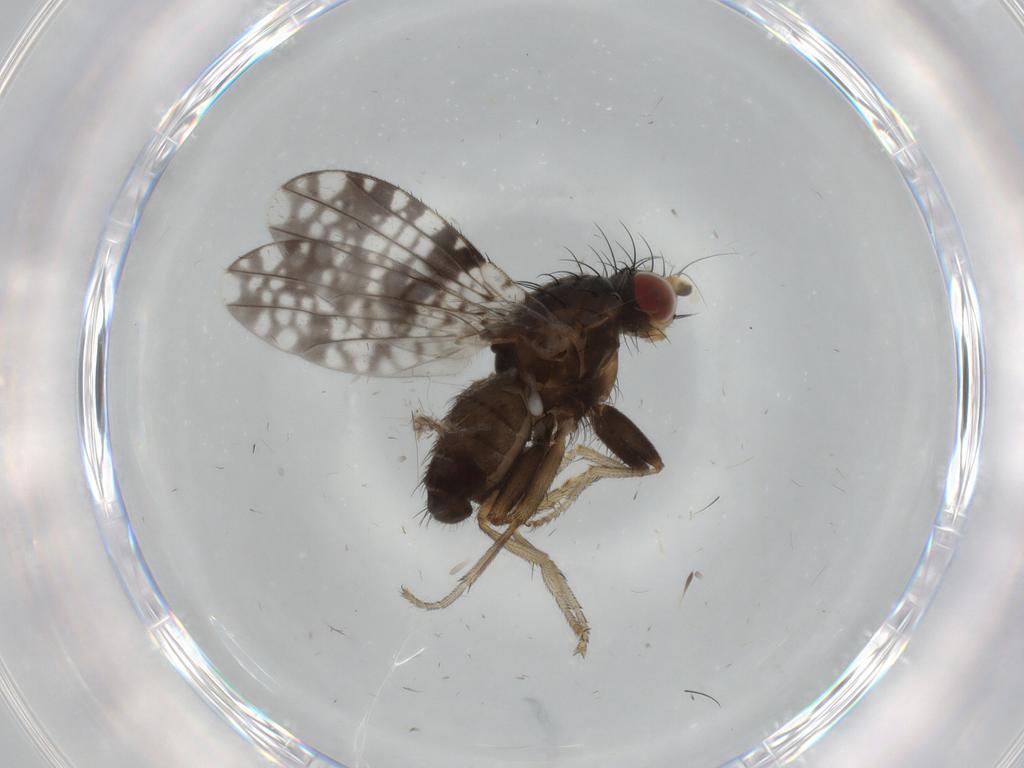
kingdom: Animalia
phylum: Arthropoda
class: Insecta
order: Diptera
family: Tephritidae
